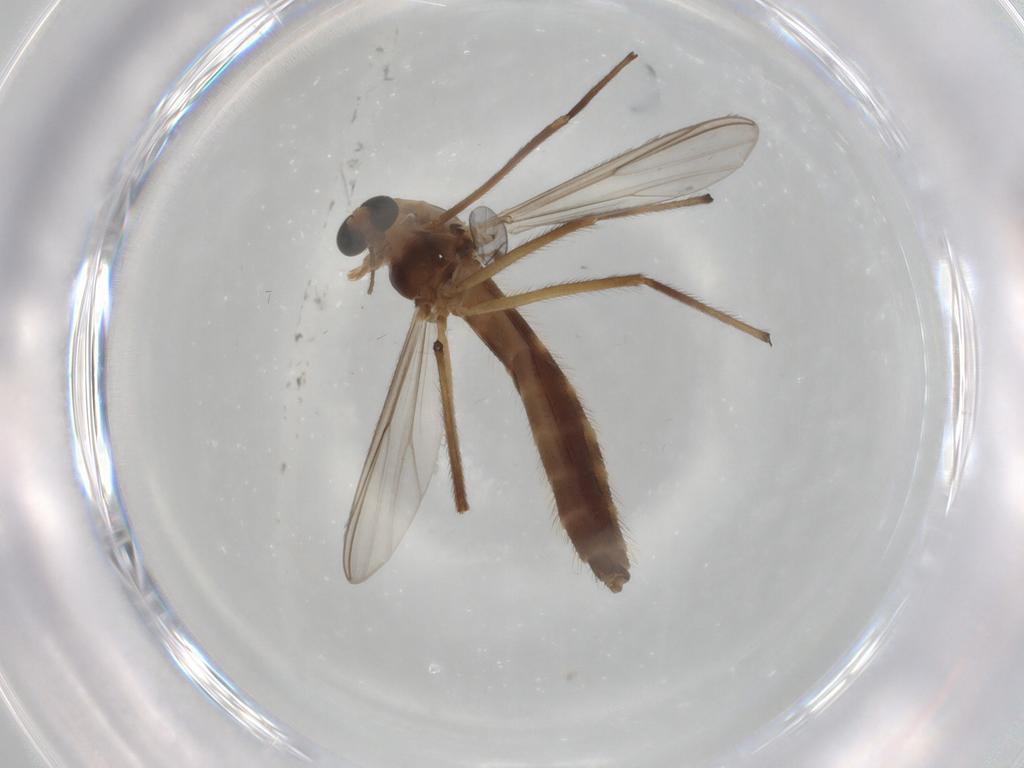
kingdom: Animalia
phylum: Arthropoda
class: Insecta
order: Diptera
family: Chironomidae
